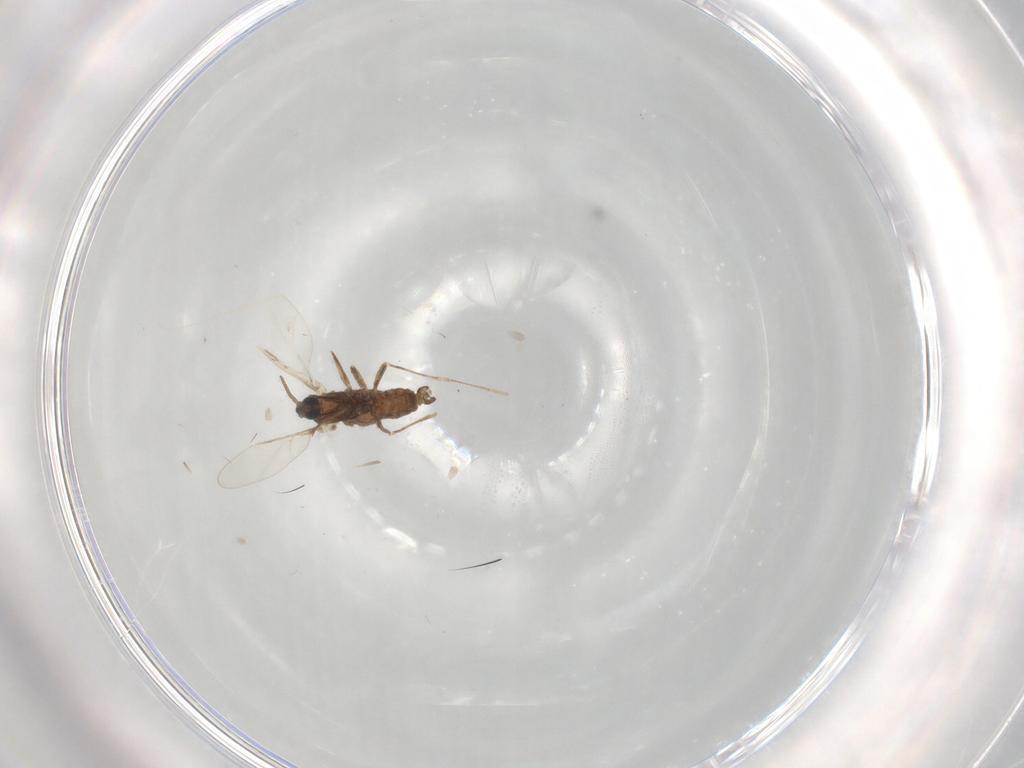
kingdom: Animalia
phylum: Arthropoda
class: Insecta
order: Diptera
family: Cecidomyiidae
